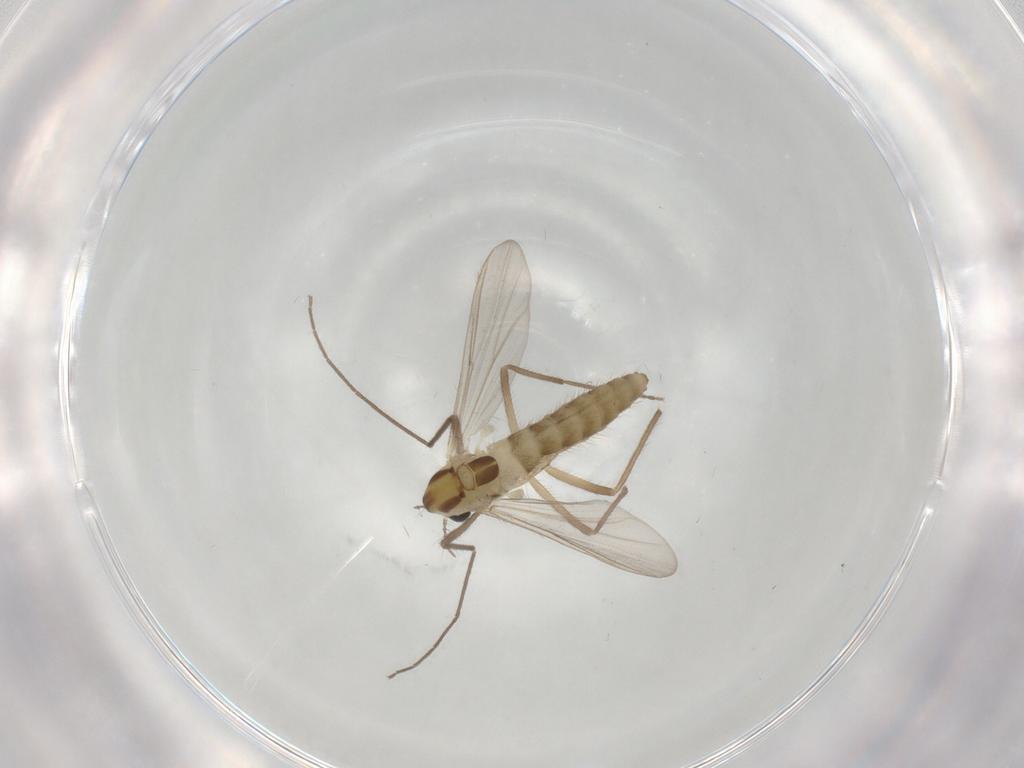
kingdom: Animalia
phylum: Arthropoda
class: Insecta
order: Diptera
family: Chironomidae
